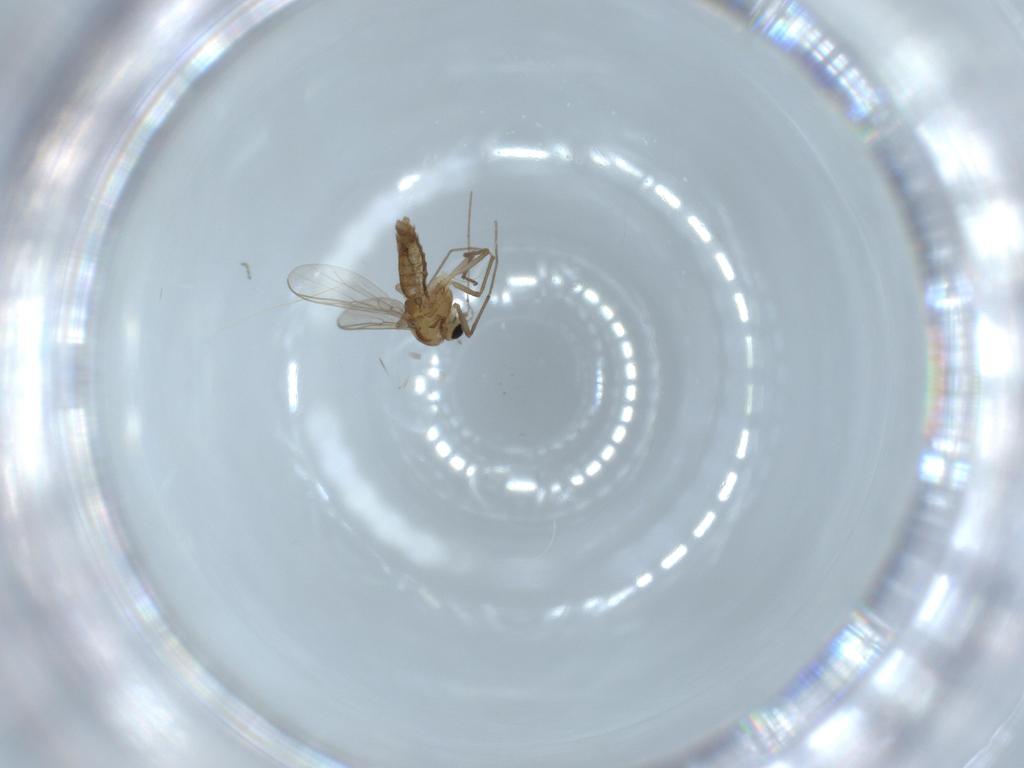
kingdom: Animalia
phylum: Arthropoda
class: Insecta
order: Diptera
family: Chironomidae
